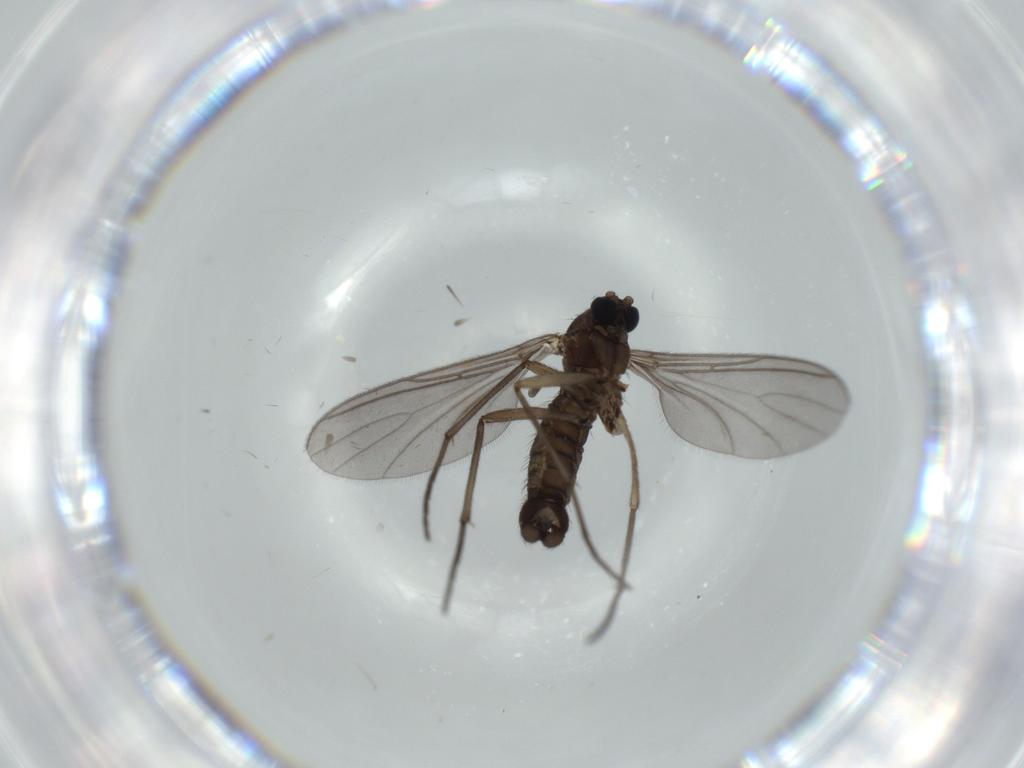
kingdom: Animalia
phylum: Arthropoda
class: Insecta
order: Diptera
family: Sciaridae
